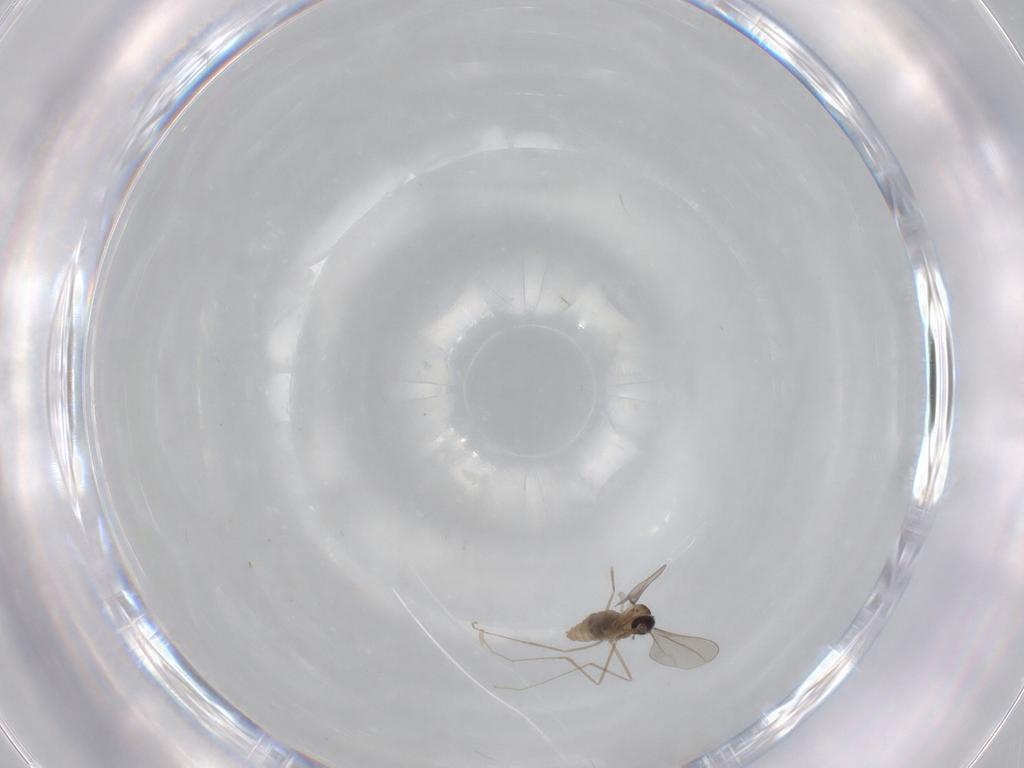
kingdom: Animalia
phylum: Arthropoda
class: Insecta
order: Diptera
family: Cecidomyiidae
